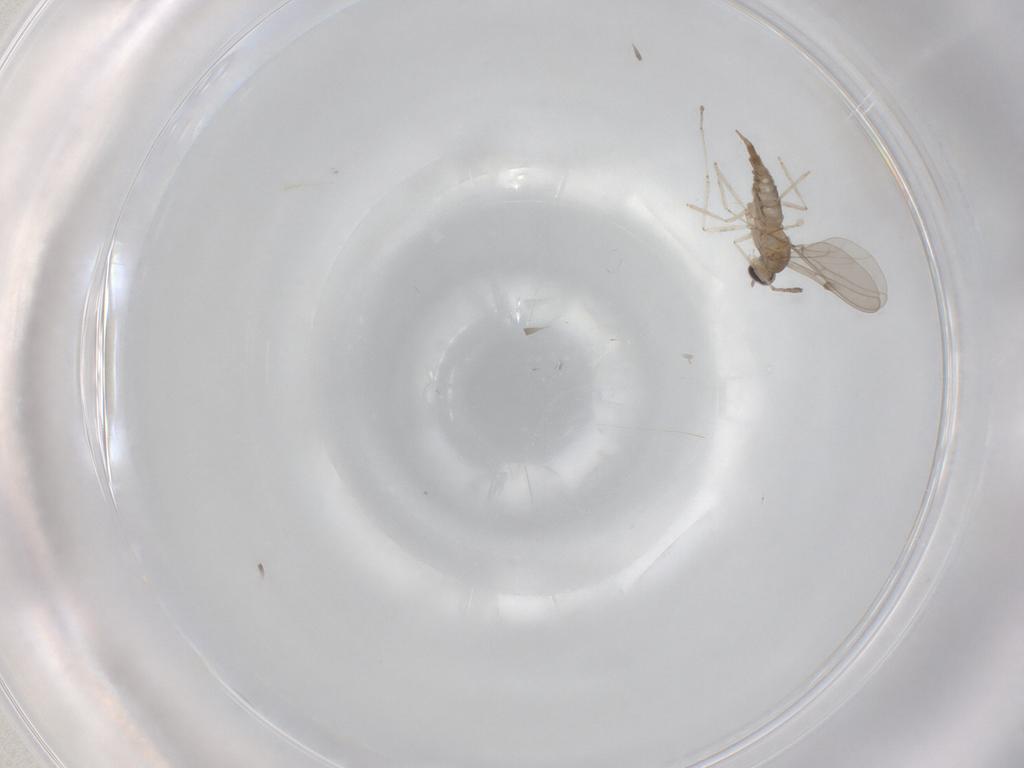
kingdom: Animalia
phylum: Arthropoda
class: Insecta
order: Diptera
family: Cecidomyiidae
